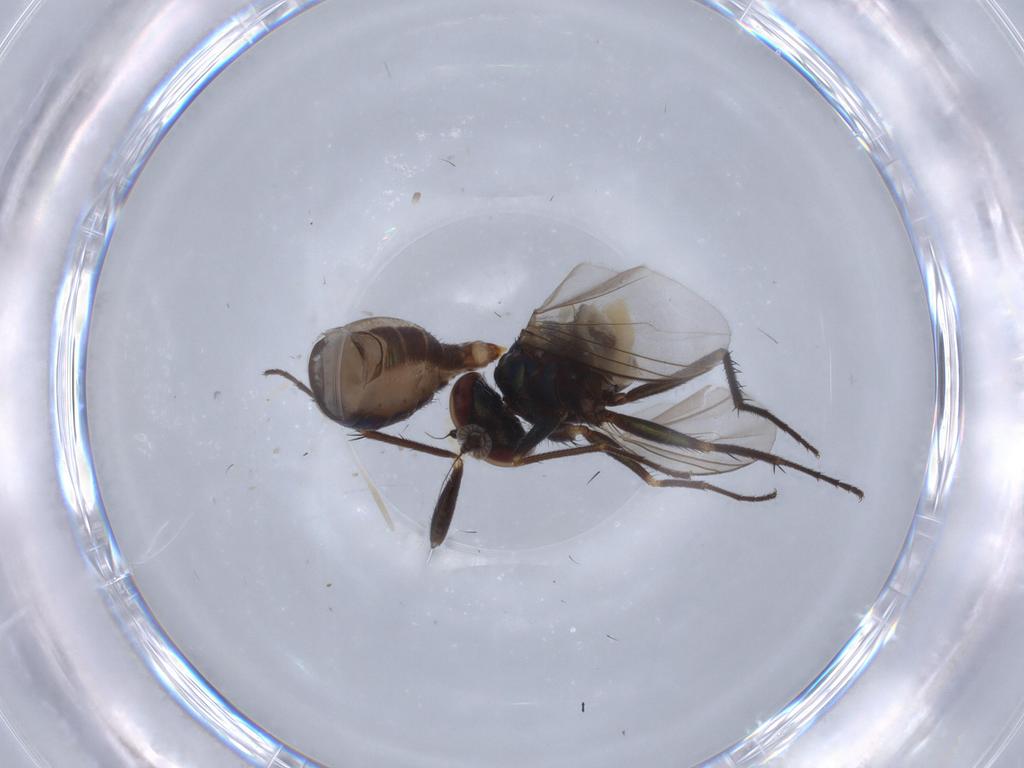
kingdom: Animalia
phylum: Arthropoda
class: Insecta
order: Diptera
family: Dolichopodidae
